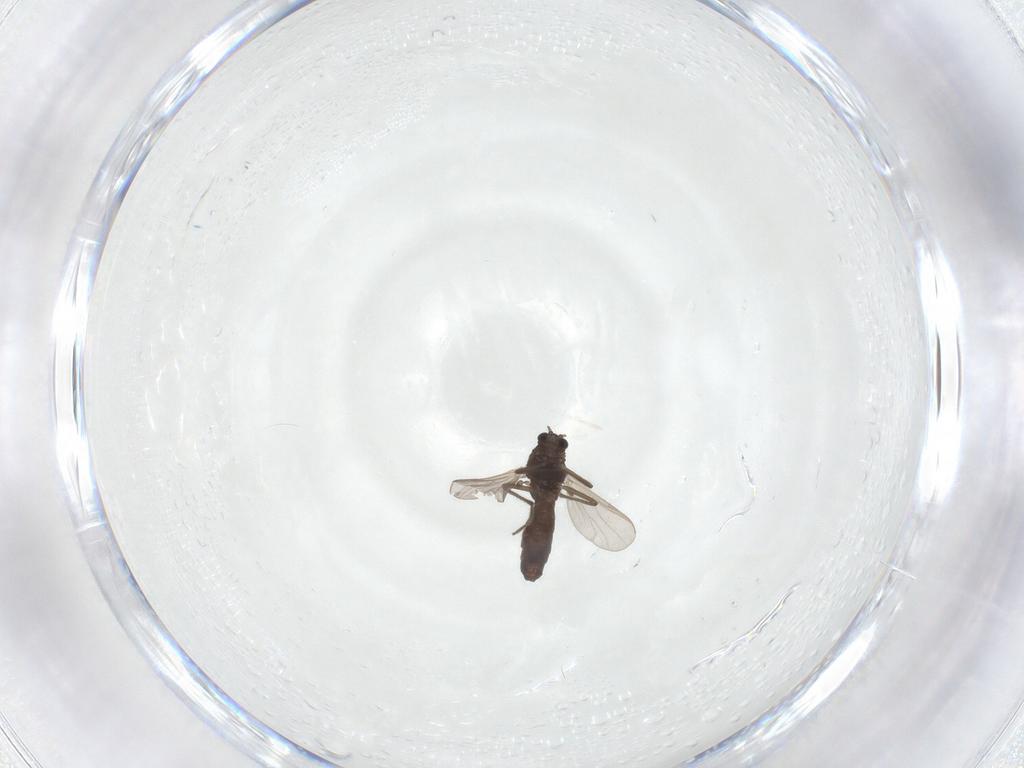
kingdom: Animalia
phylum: Arthropoda
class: Insecta
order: Diptera
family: Chironomidae
